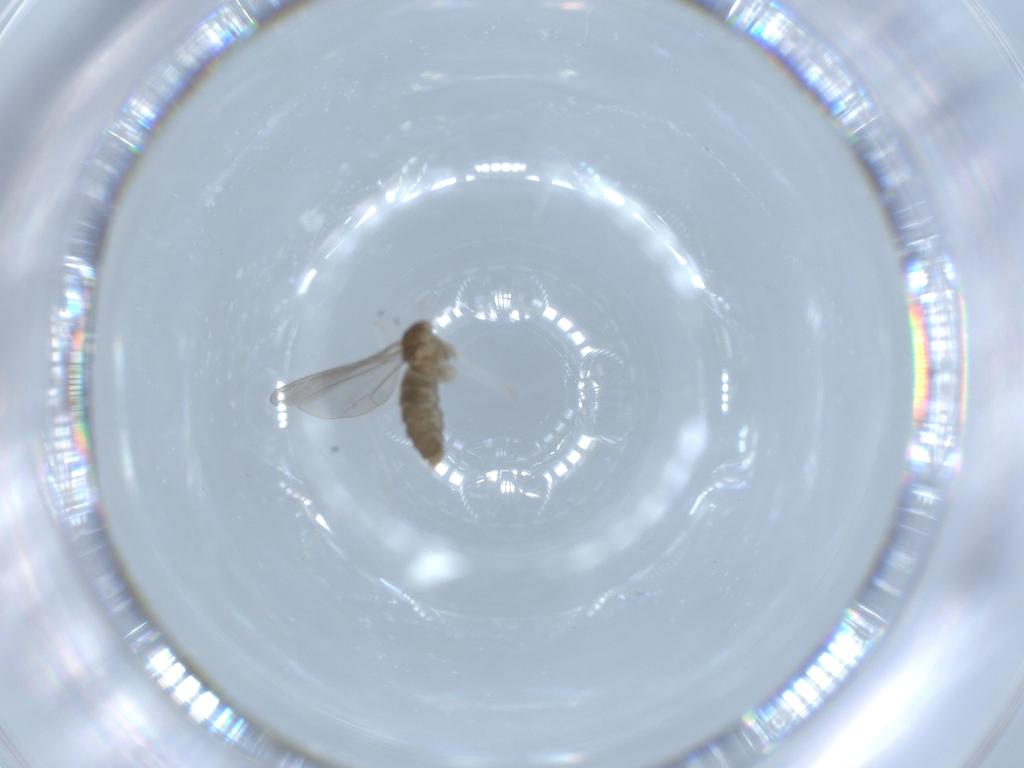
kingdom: Animalia
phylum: Arthropoda
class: Insecta
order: Diptera
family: Cecidomyiidae
